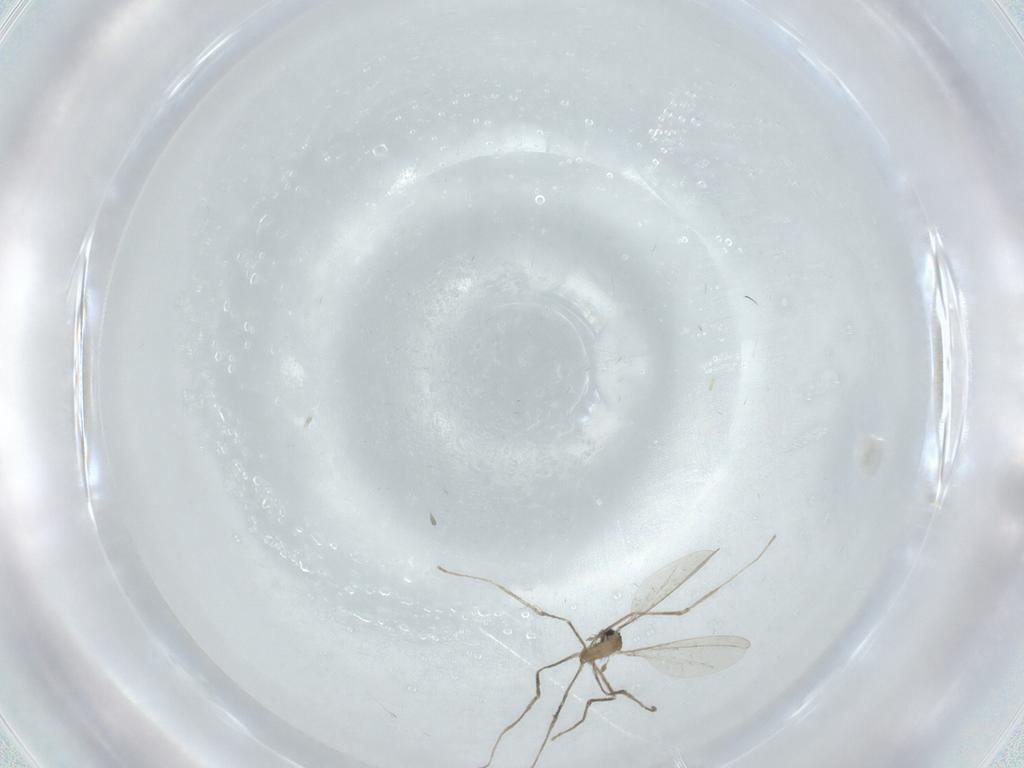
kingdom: Animalia
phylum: Arthropoda
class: Insecta
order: Diptera
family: Cecidomyiidae
